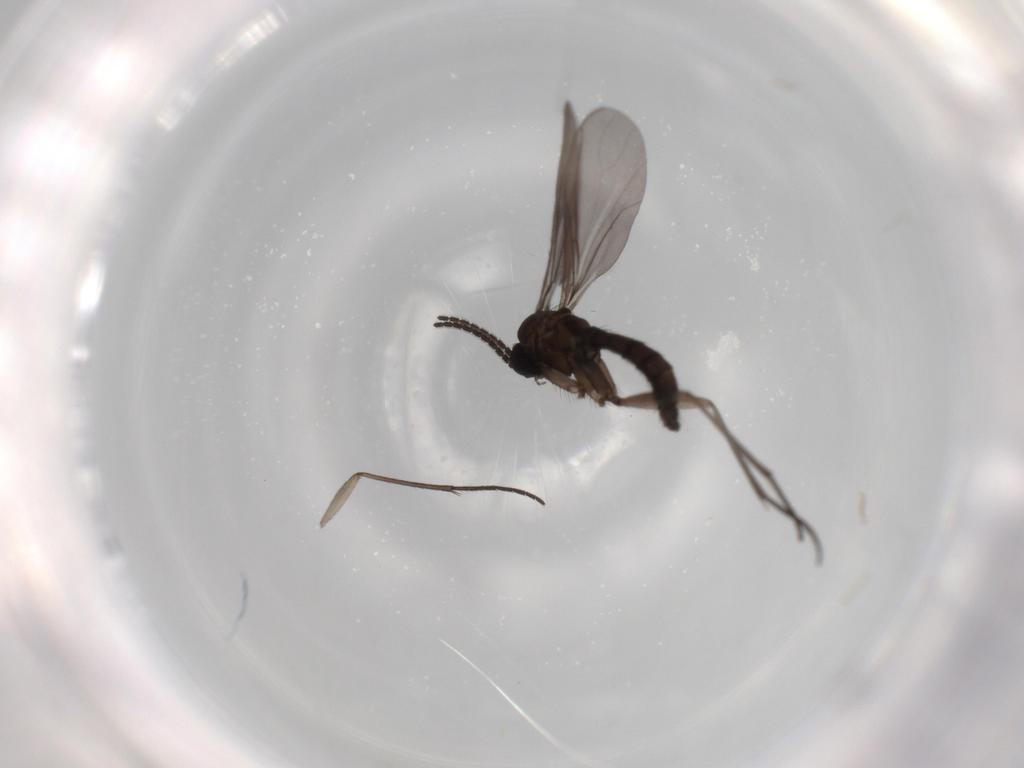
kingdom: Animalia
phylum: Arthropoda
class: Insecta
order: Diptera
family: Sciaridae
